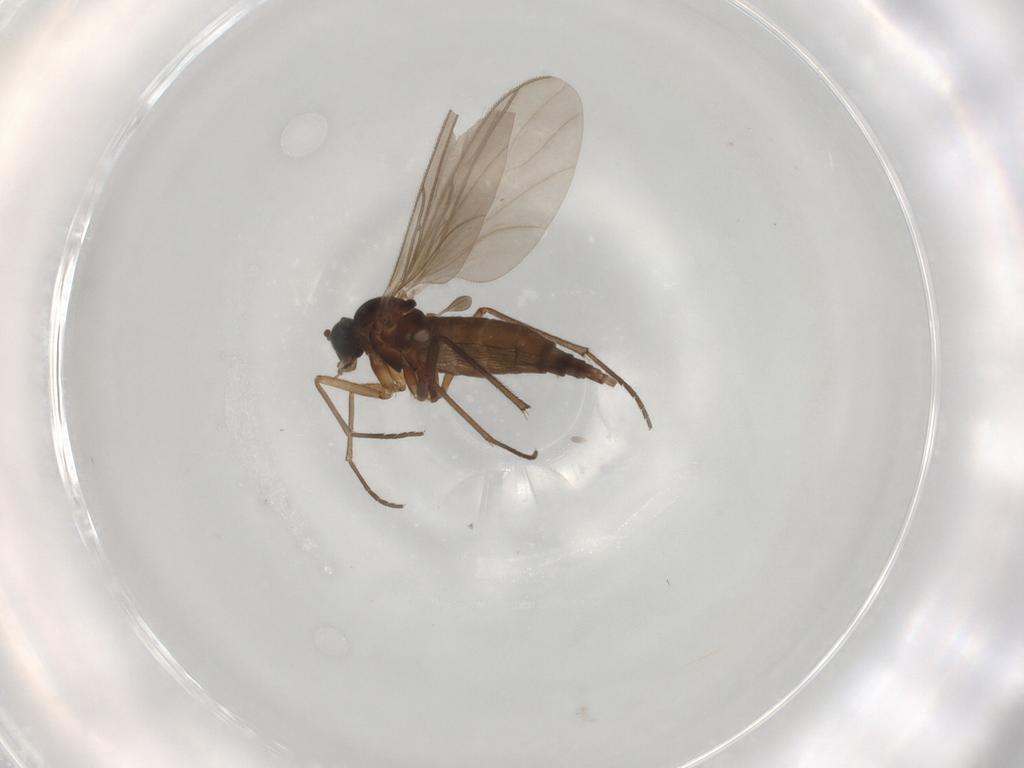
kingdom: Animalia
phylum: Arthropoda
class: Insecta
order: Diptera
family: Sciaridae
